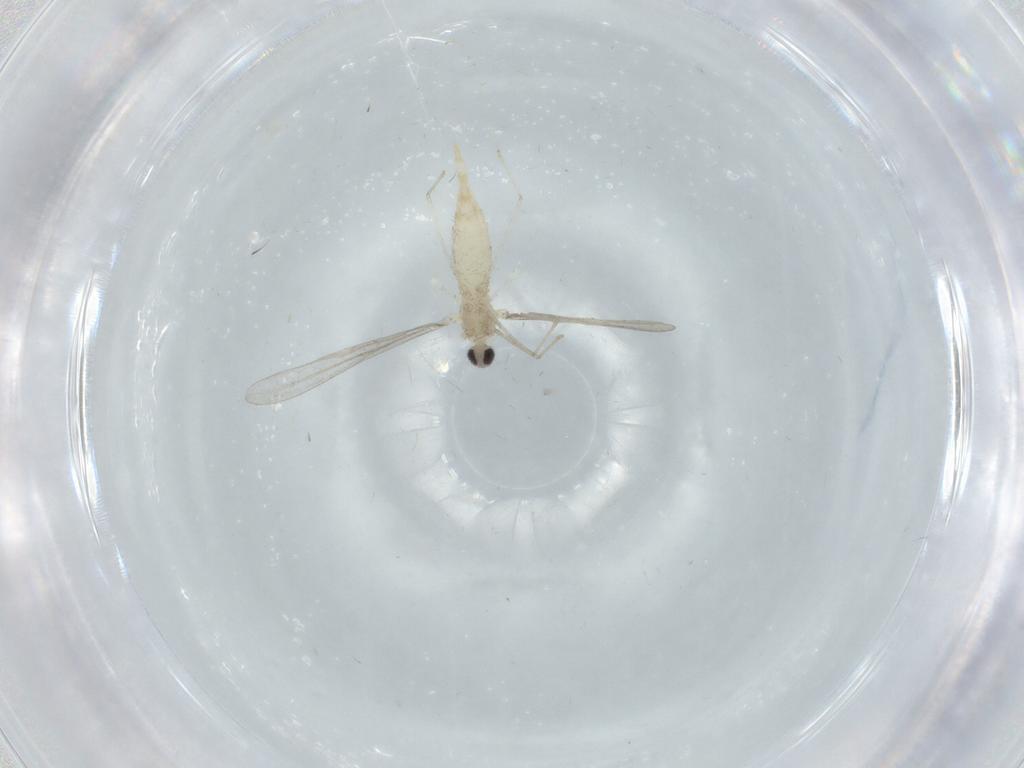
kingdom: Animalia
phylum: Arthropoda
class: Insecta
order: Diptera
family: Cecidomyiidae
